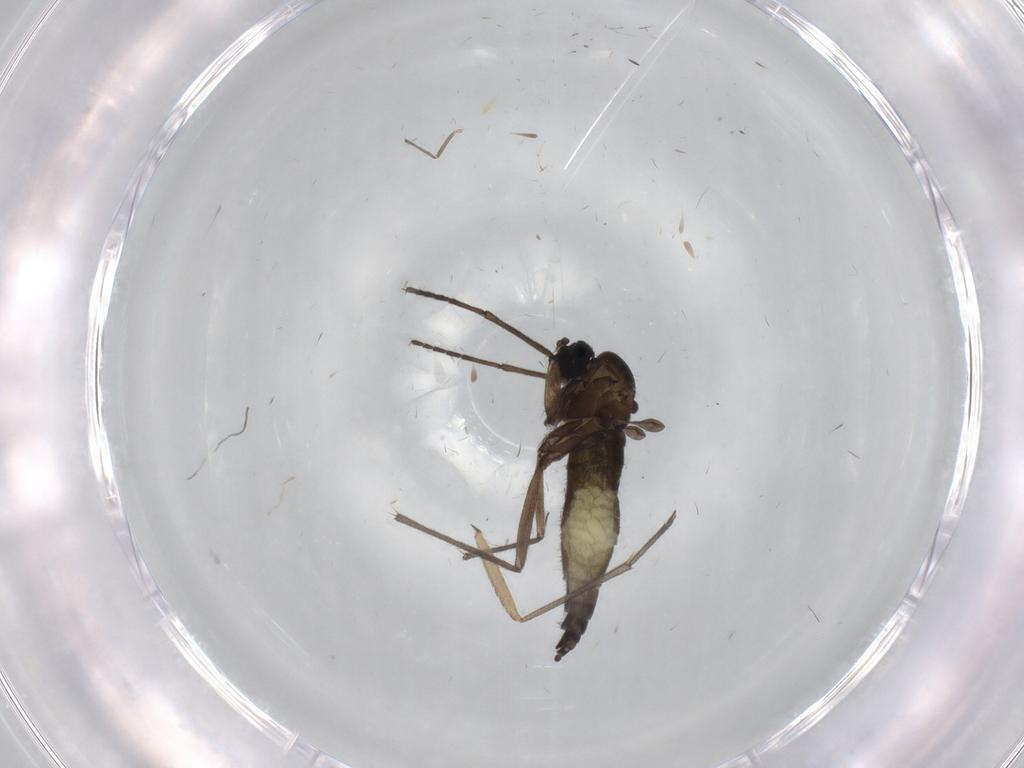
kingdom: Animalia
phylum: Arthropoda
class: Insecta
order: Diptera
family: Sciaridae
